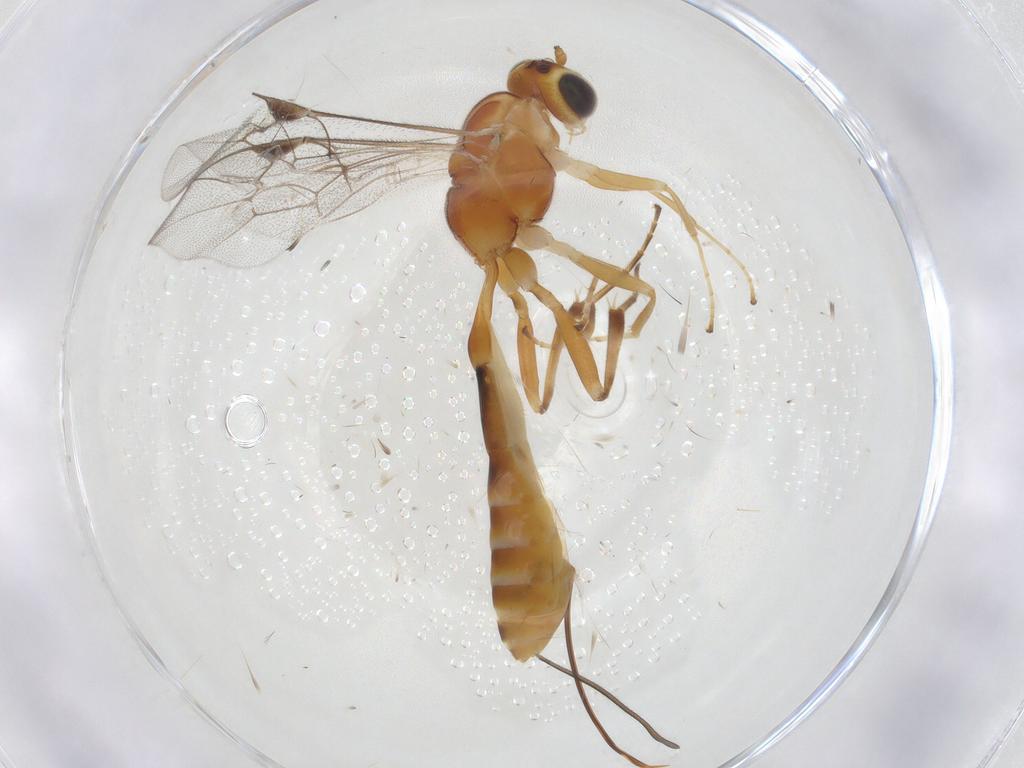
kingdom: Animalia
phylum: Arthropoda
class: Insecta
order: Hymenoptera
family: Ichneumonidae
